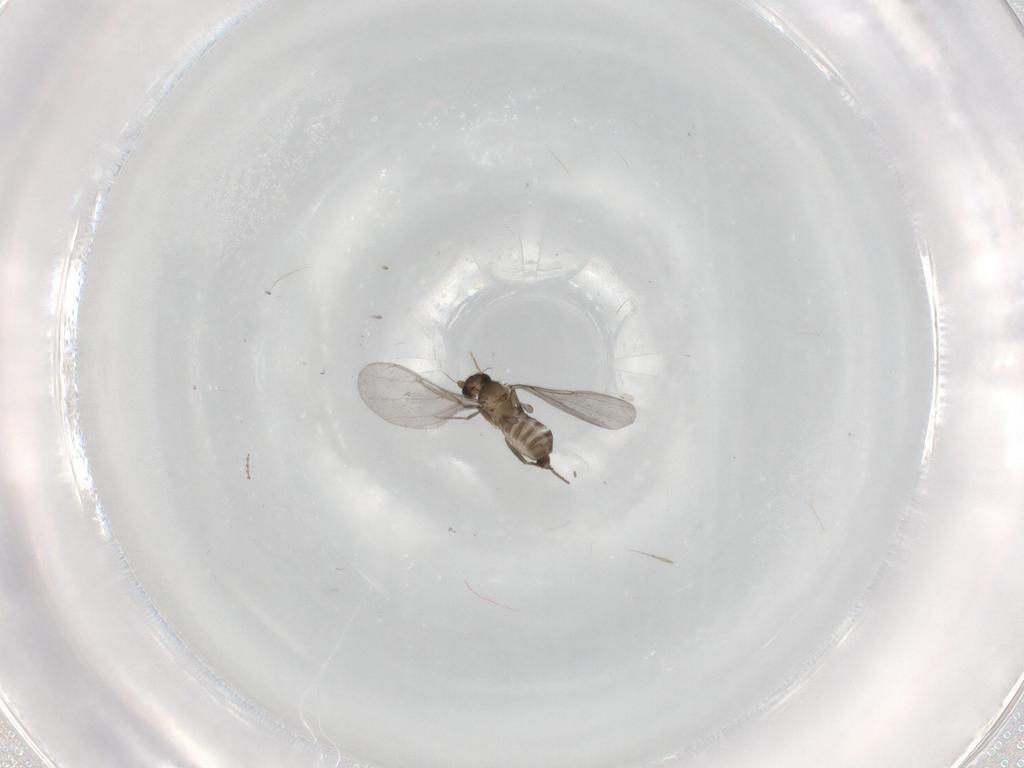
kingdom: Animalia
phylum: Arthropoda
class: Insecta
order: Diptera
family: Phoridae
